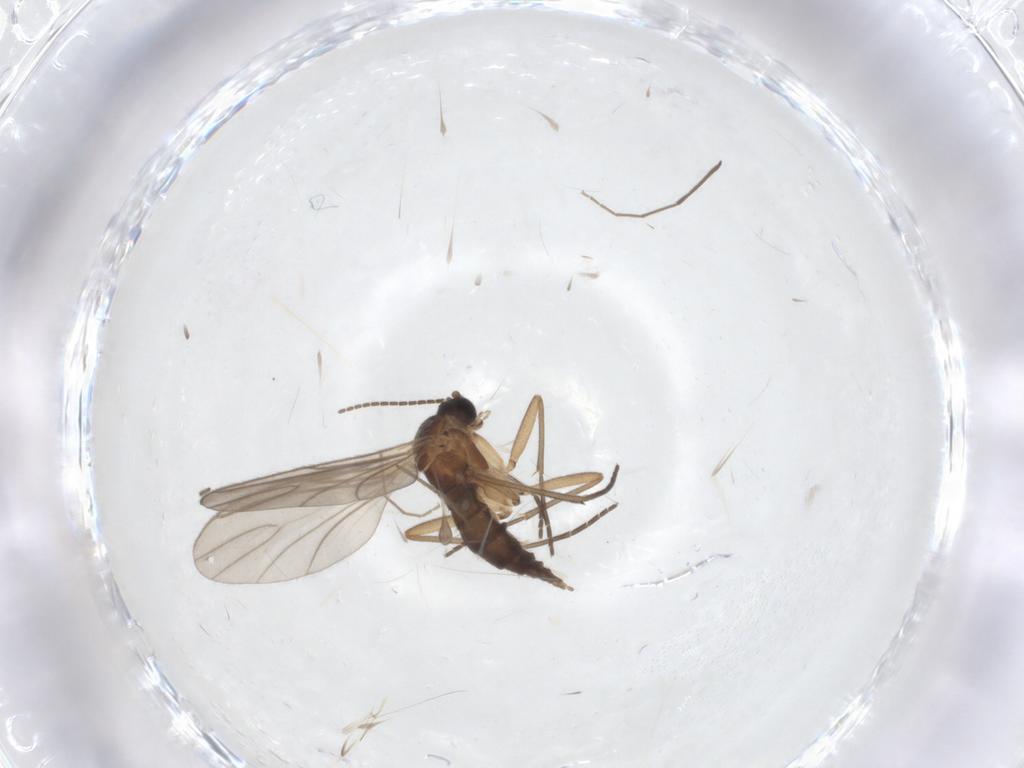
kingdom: Animalia
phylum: Arthropoda
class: Insecta
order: Diptera
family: Sciaridae
